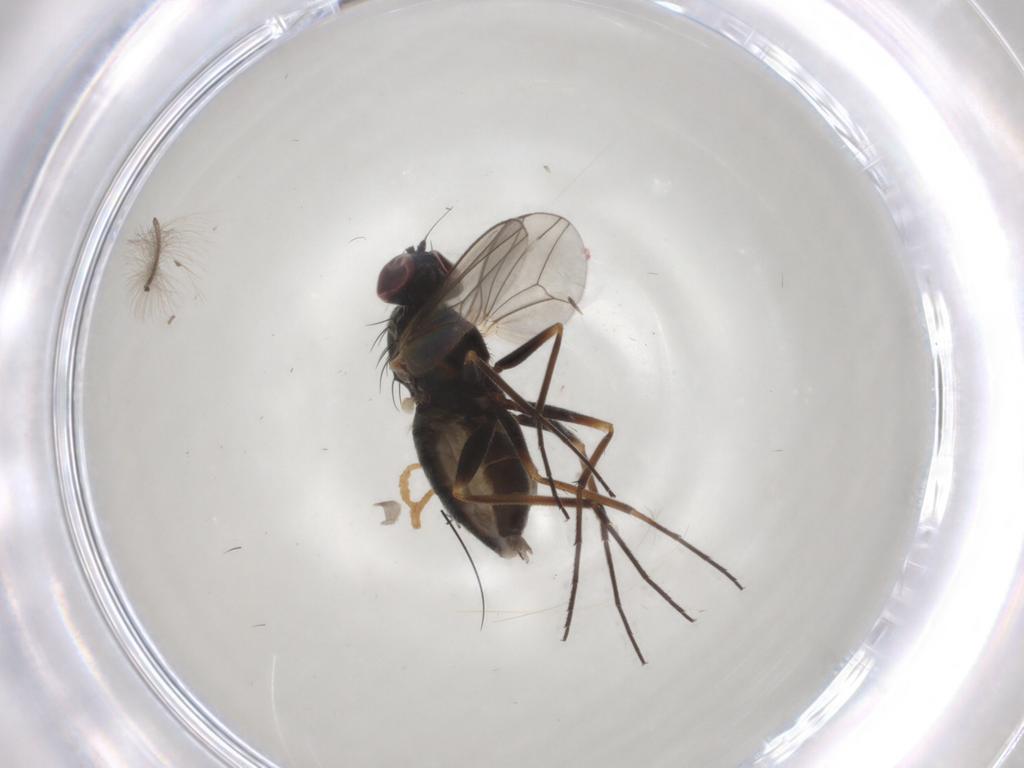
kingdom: Animalia
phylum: Arthropoda
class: Insecta
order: Diptera
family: Dolichopodidae
